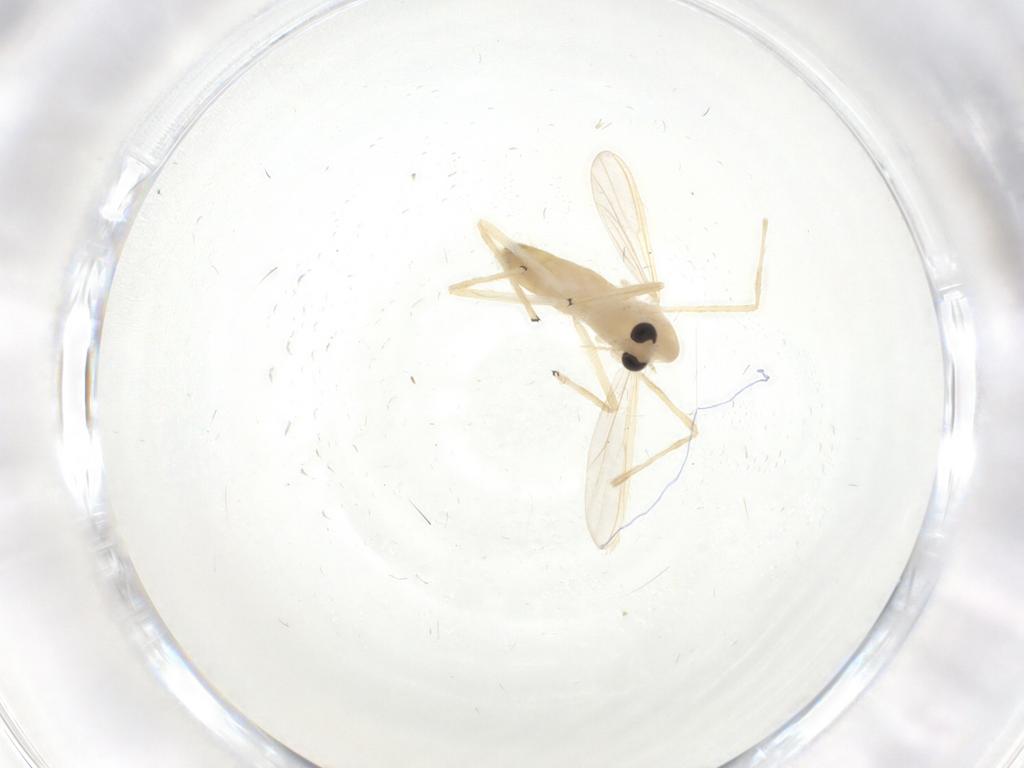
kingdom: Animalia
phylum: Arthropoda
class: Insecta
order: Diptera
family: Chironomidae
